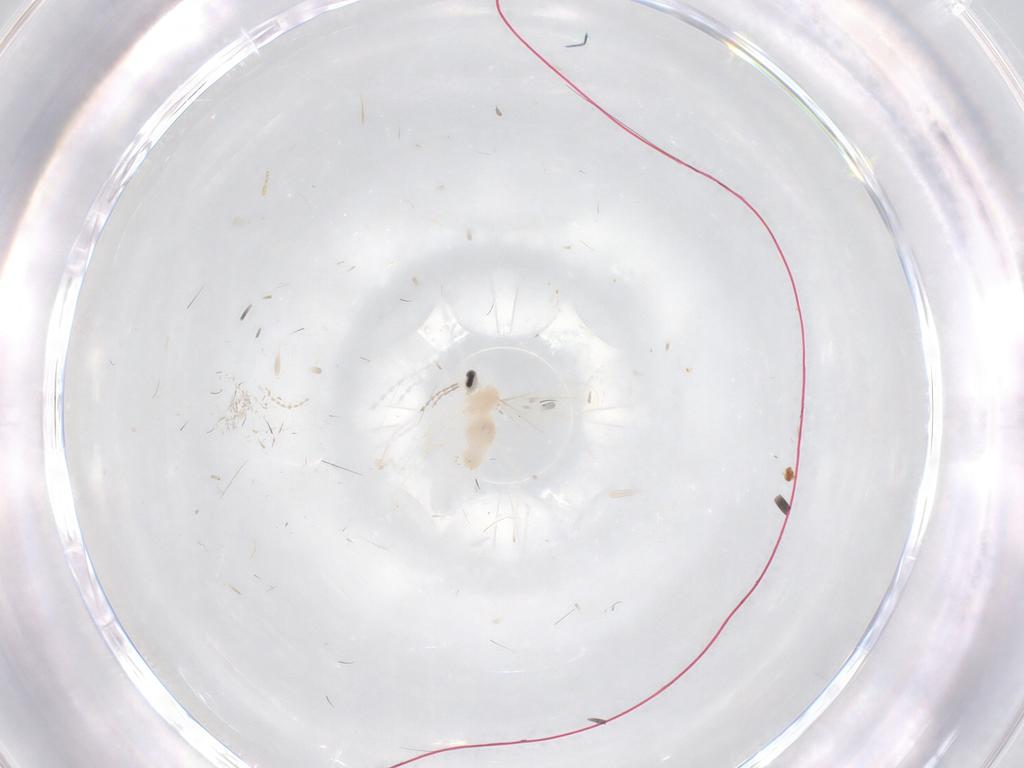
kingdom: Animalia
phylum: Arthropoda
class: Insecta
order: Diptera
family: Cecidomyiidae
